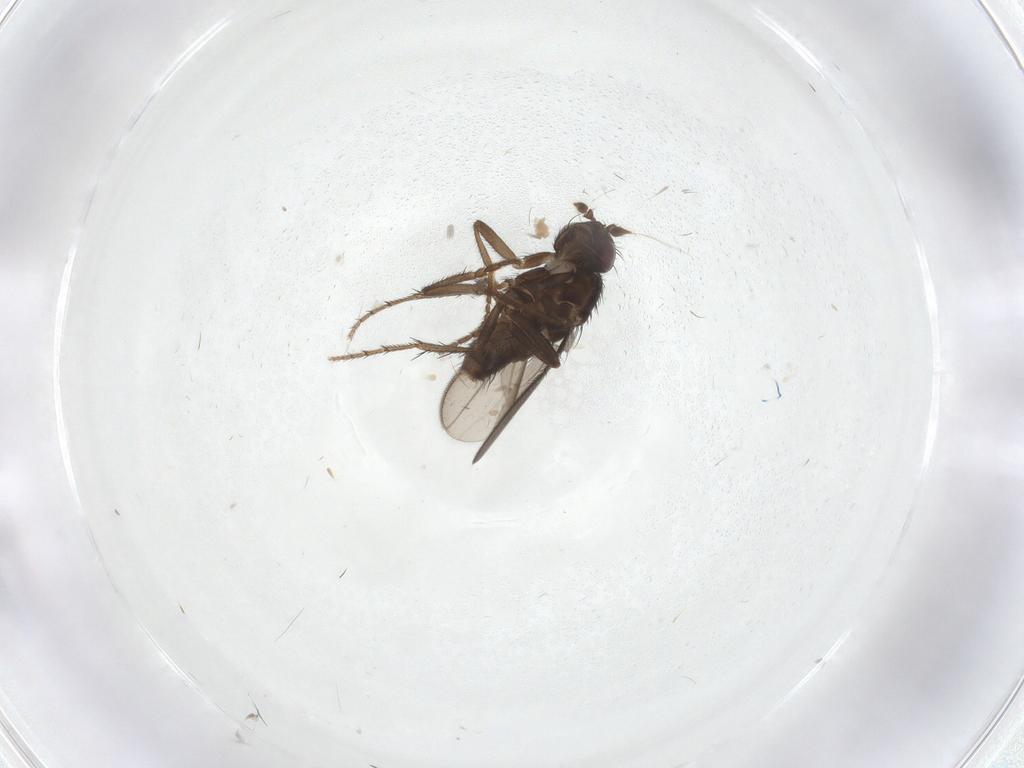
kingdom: Animalia
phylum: Arthropoda
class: Insecta
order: Diptera
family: Sphaeroceridae
